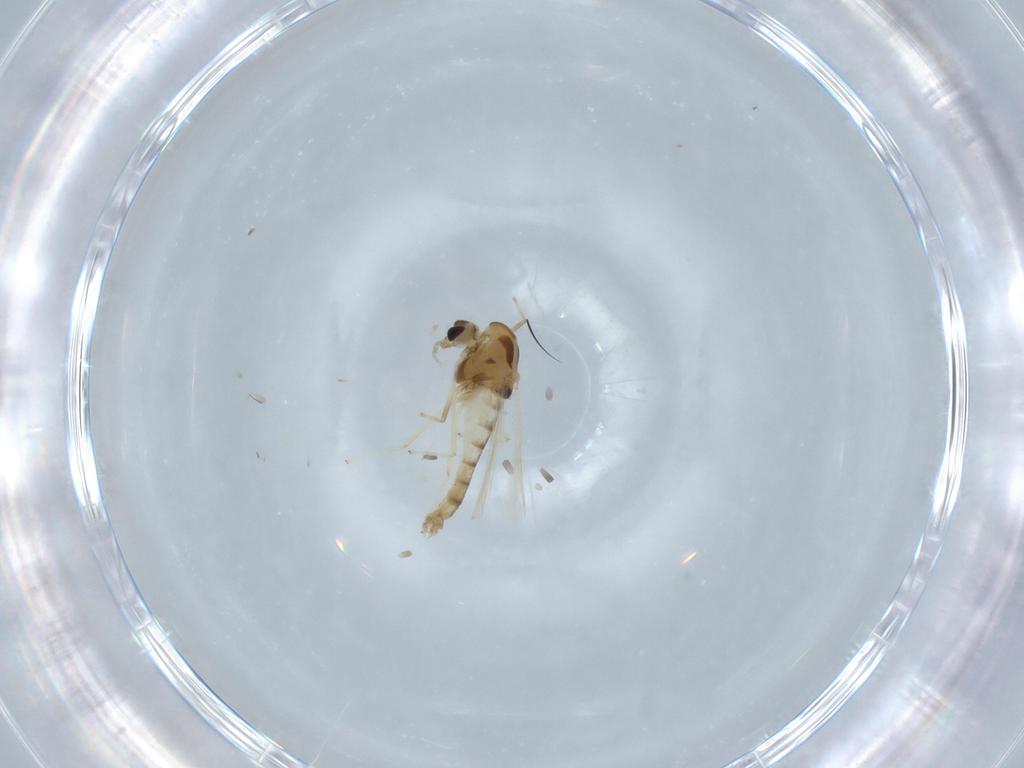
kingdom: Animalia
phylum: Arthropoda
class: Insecta
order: Diptera
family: Chironomidae
